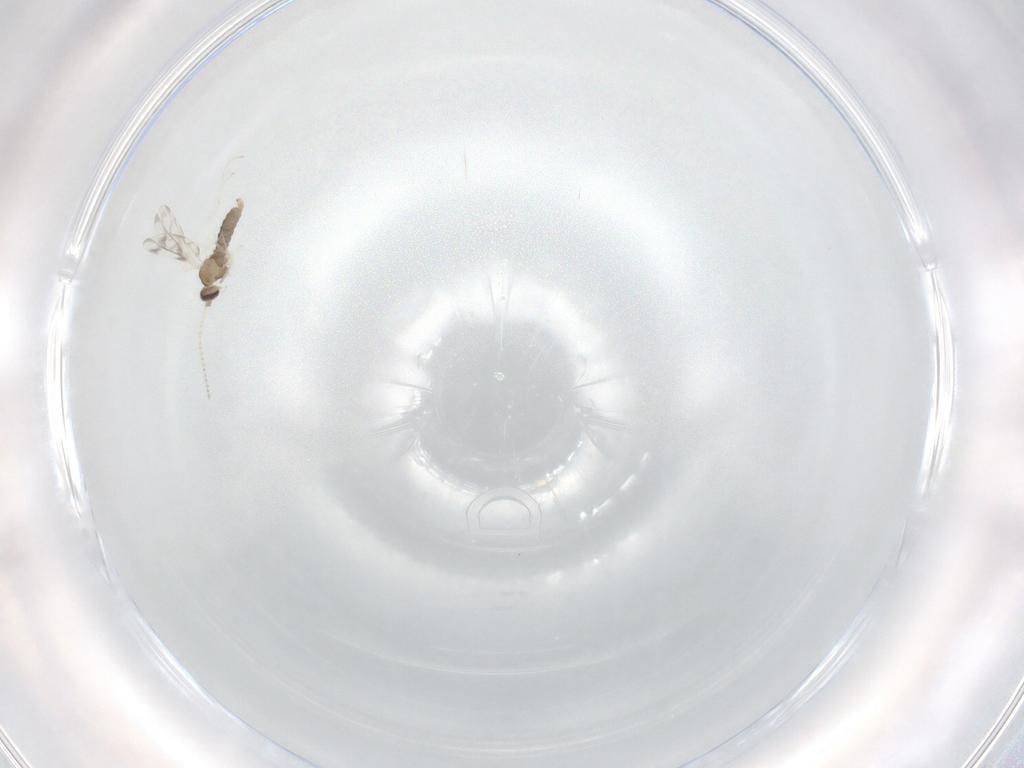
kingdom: Animalia
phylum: Arthropoda
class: Insecta
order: Diptera
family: Cecidomyiidae
